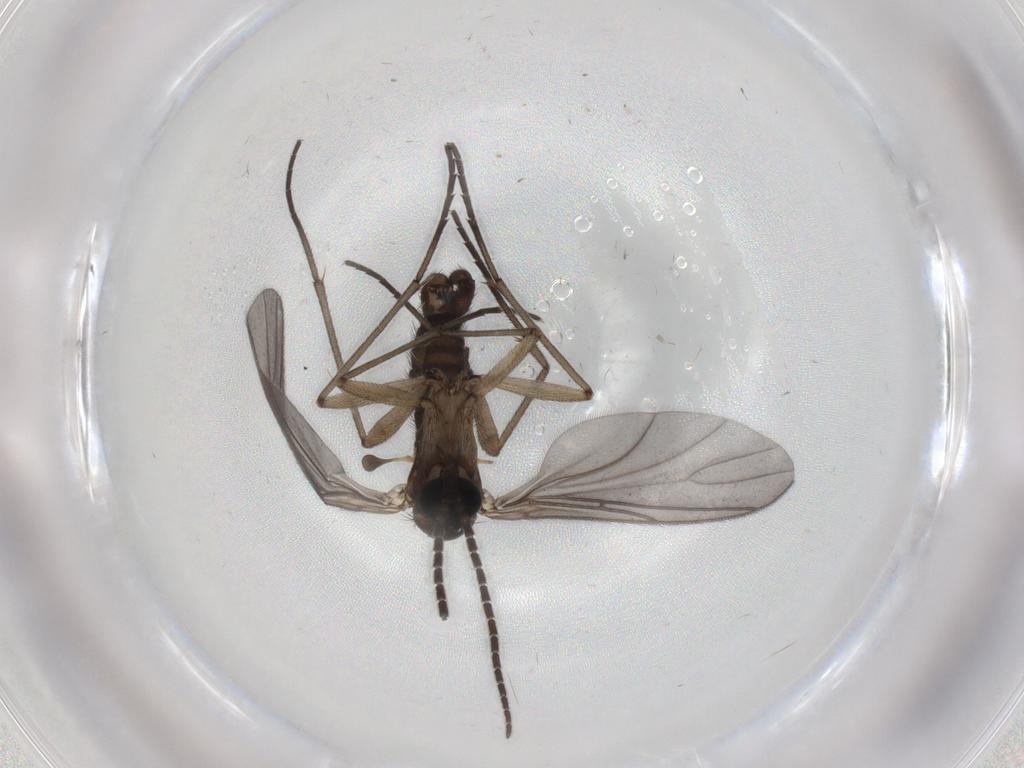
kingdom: Animalia
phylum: Arthropoda
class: Insecta
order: Diptera
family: Sciaridae
